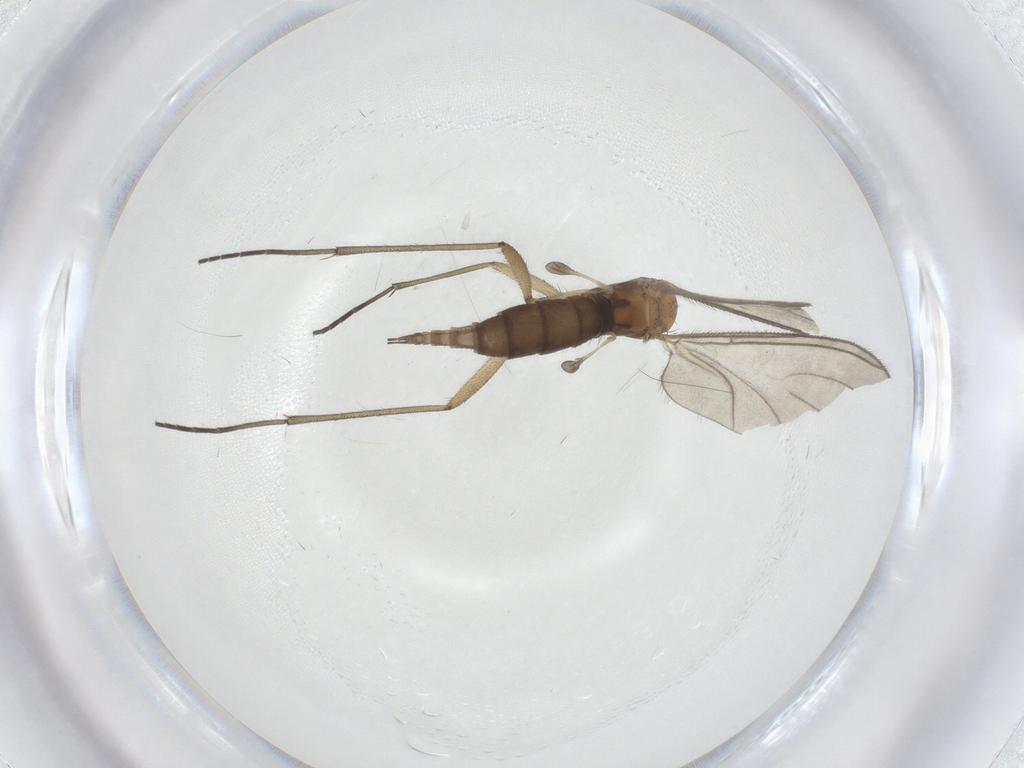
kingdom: Animalia
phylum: Arthropoda
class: Insecta
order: Diptera
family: Sciaridae
